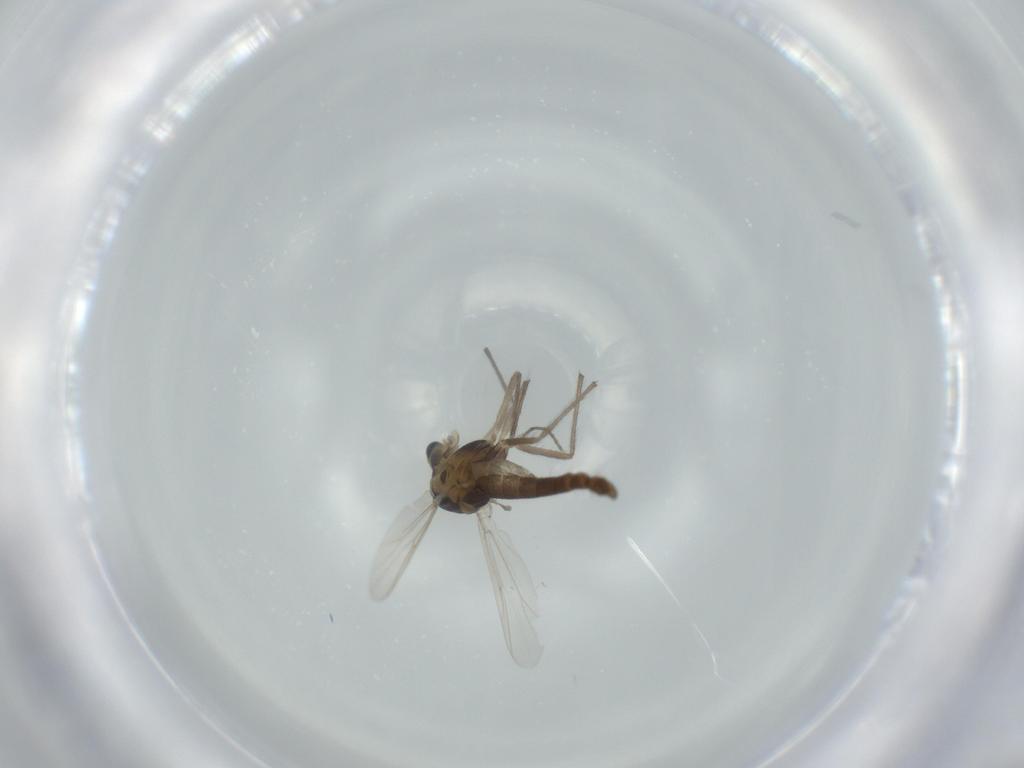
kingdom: Animalia
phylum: Arthropoda
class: Insecta
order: Diptera
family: Chironomidae
